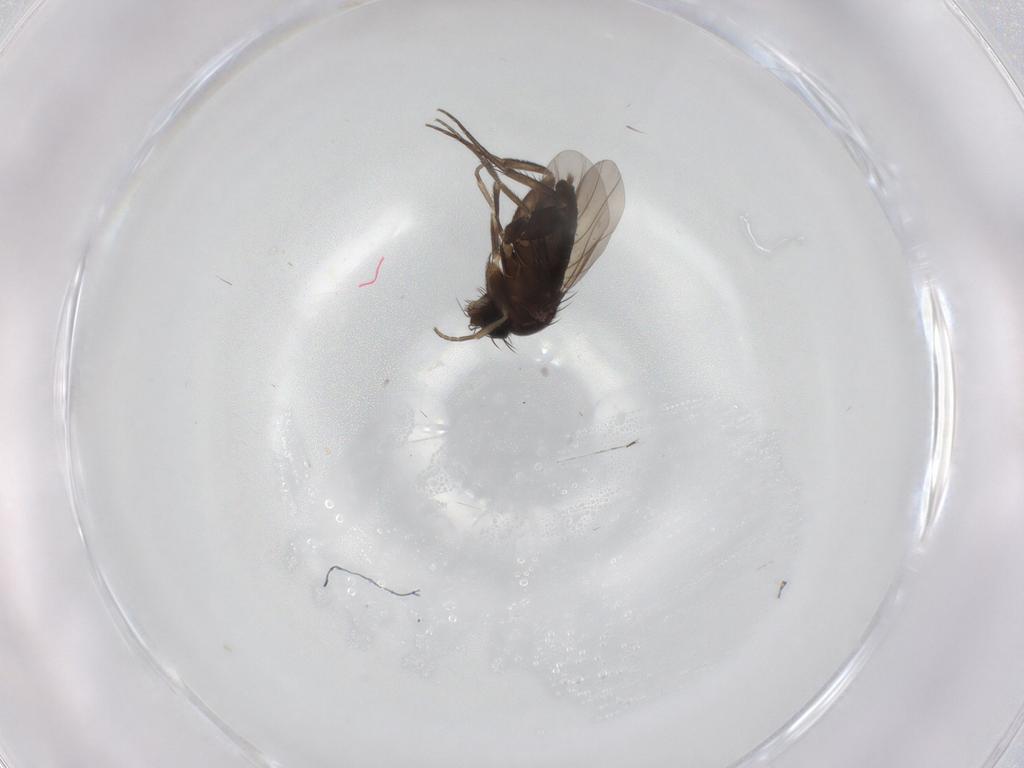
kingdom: Animalia
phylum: Arthropoda
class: Insecta
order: Diptera
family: Phoridae
